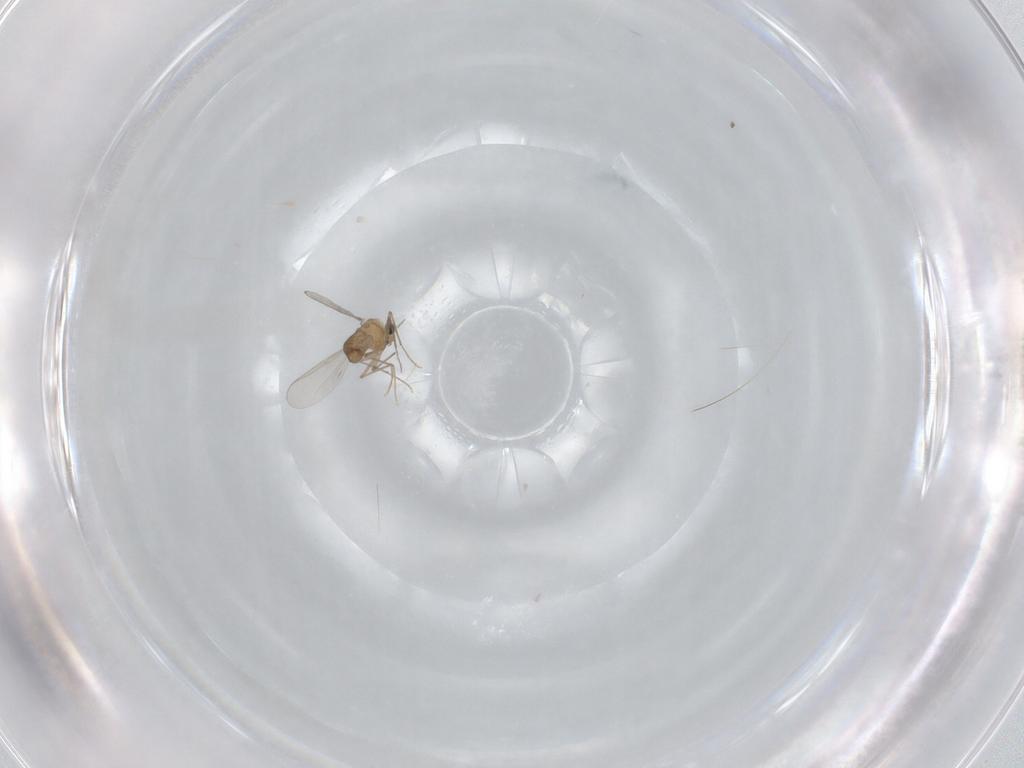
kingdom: Animalia
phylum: Arthropoda
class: Insecta
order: Diptera
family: Chironomidae
